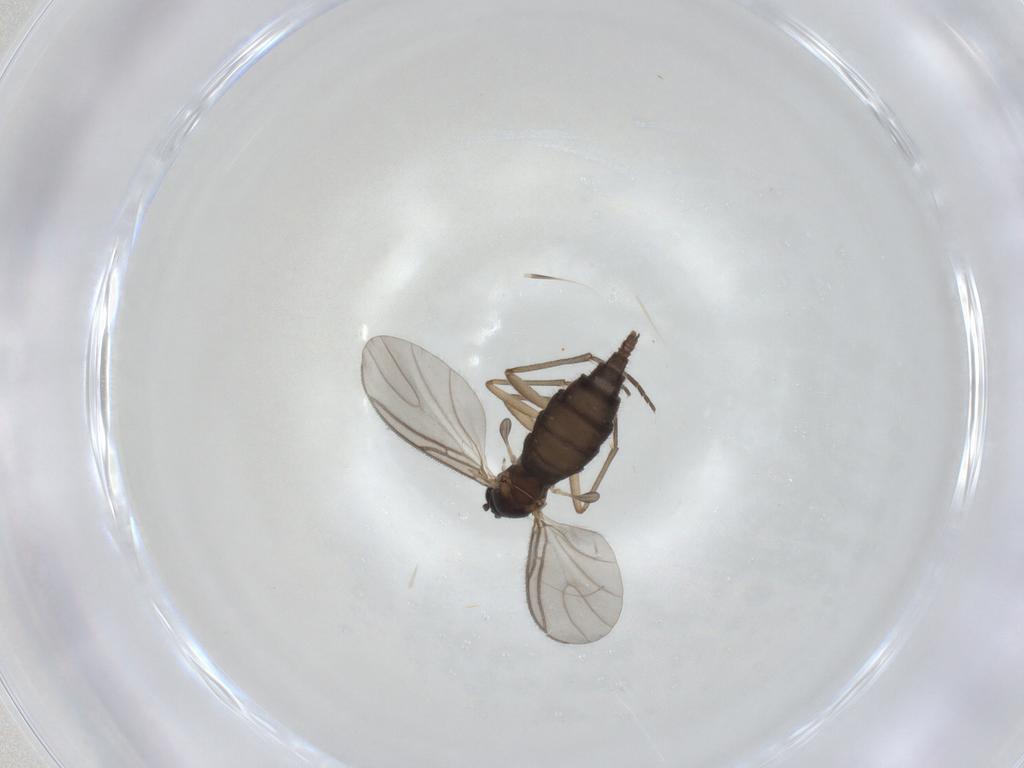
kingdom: Animalia
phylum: Arthropoda
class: Insecta
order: Diptera
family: Sciaridae
